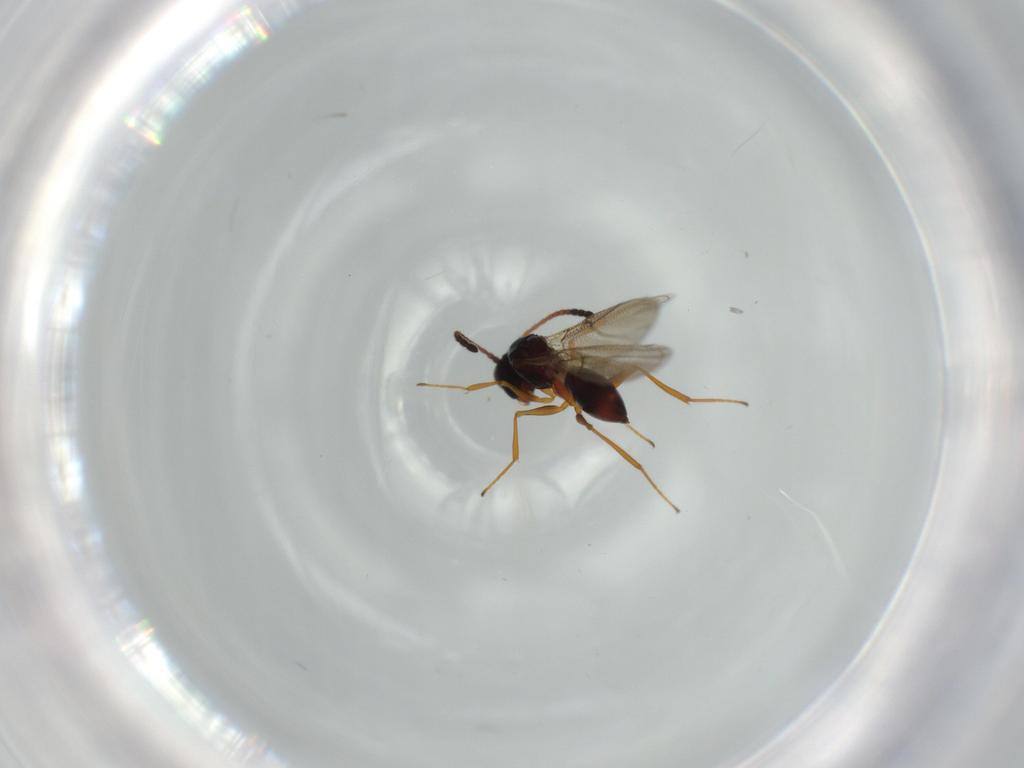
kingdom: Animalia
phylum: Arthropoda
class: Insecta
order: Hymenoptera
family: Figitidae
